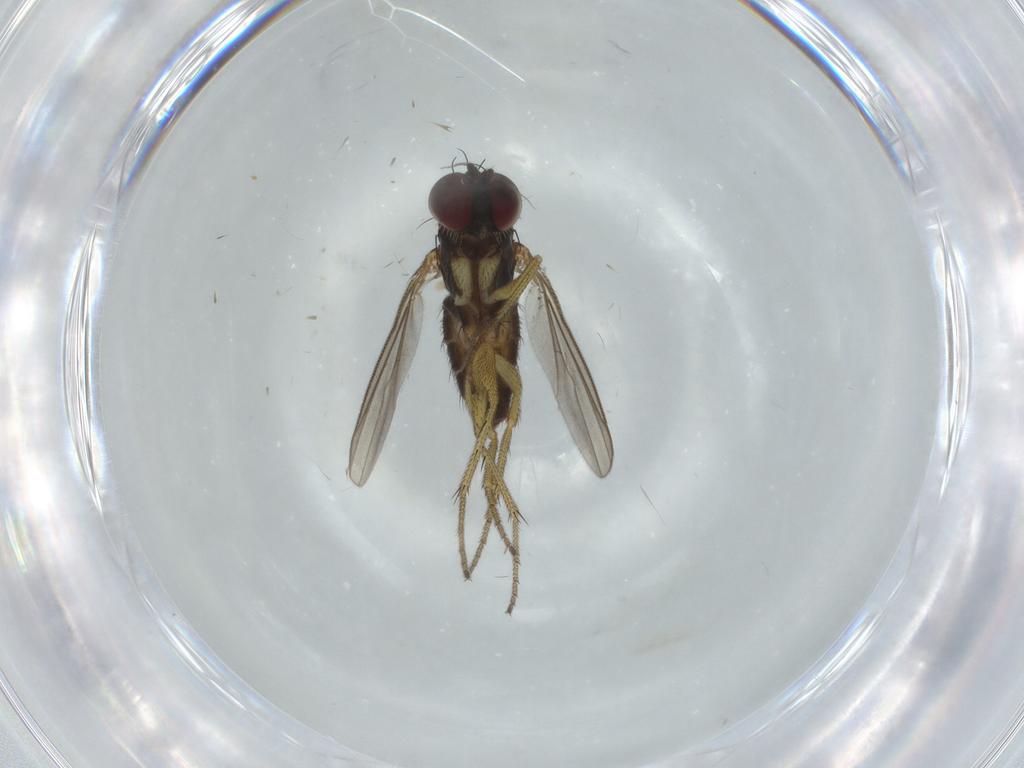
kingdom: Animalia
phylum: Arthropoda
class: Insecta
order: Diptera
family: Dolichopodidae
